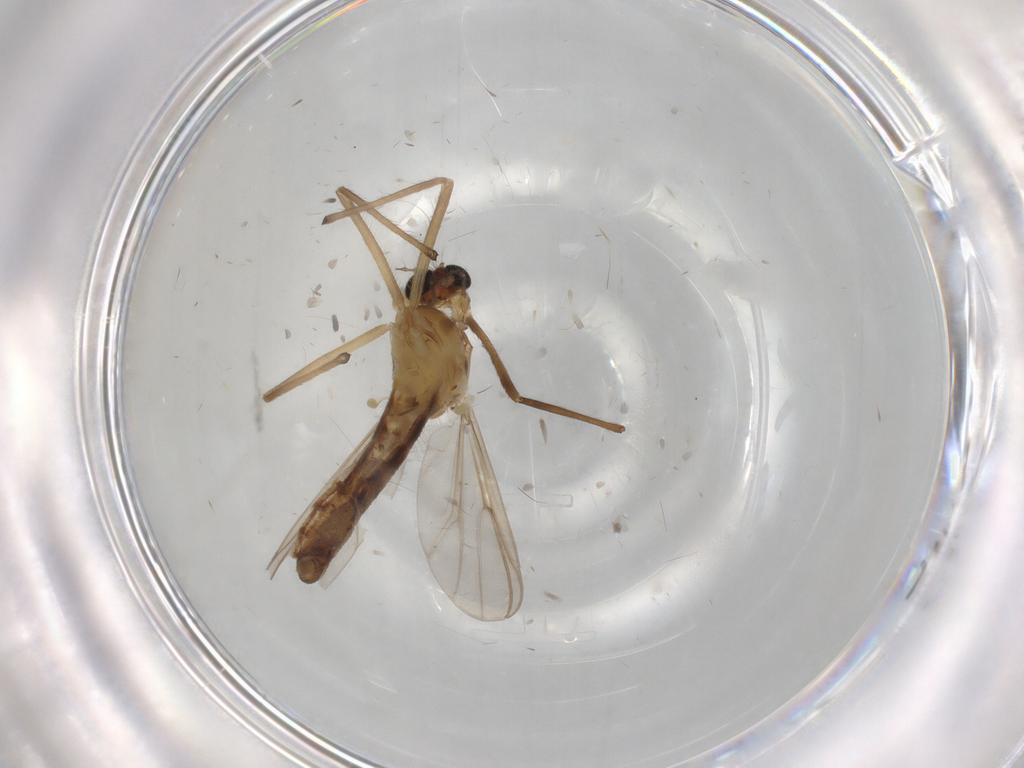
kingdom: Animalia
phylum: Arthropoda
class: Insecta
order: Diptera
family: Chironomidae
